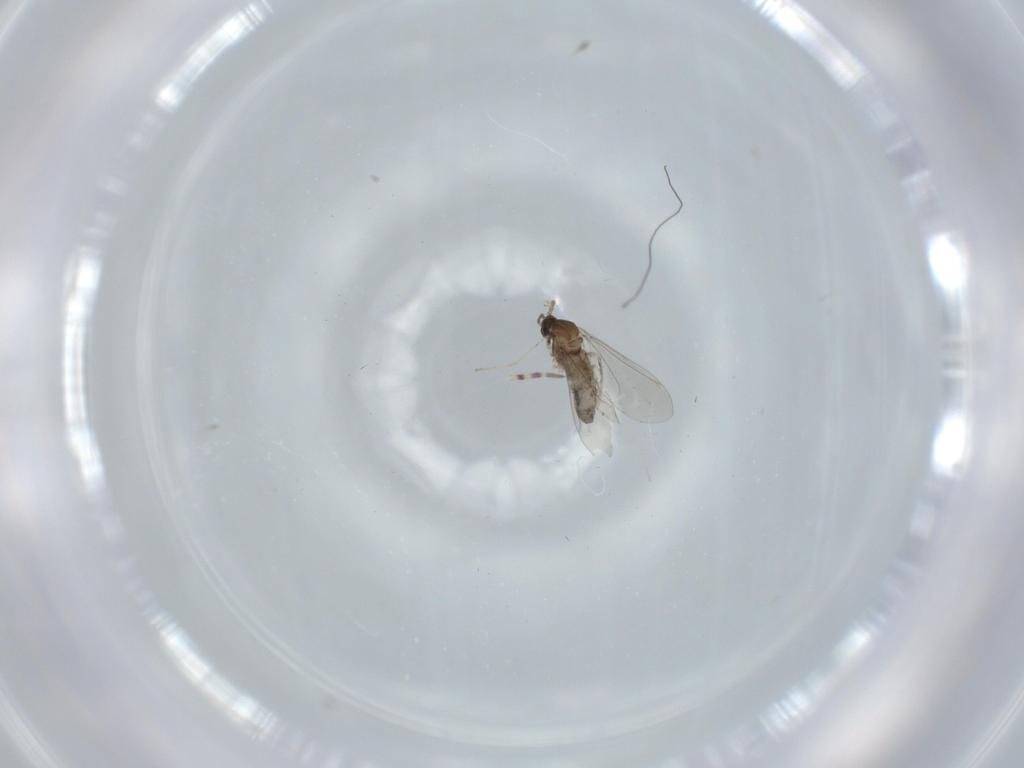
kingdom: Animalia
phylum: Arthropoda
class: Insecta
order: Diptera
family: Cecidomyiidae
